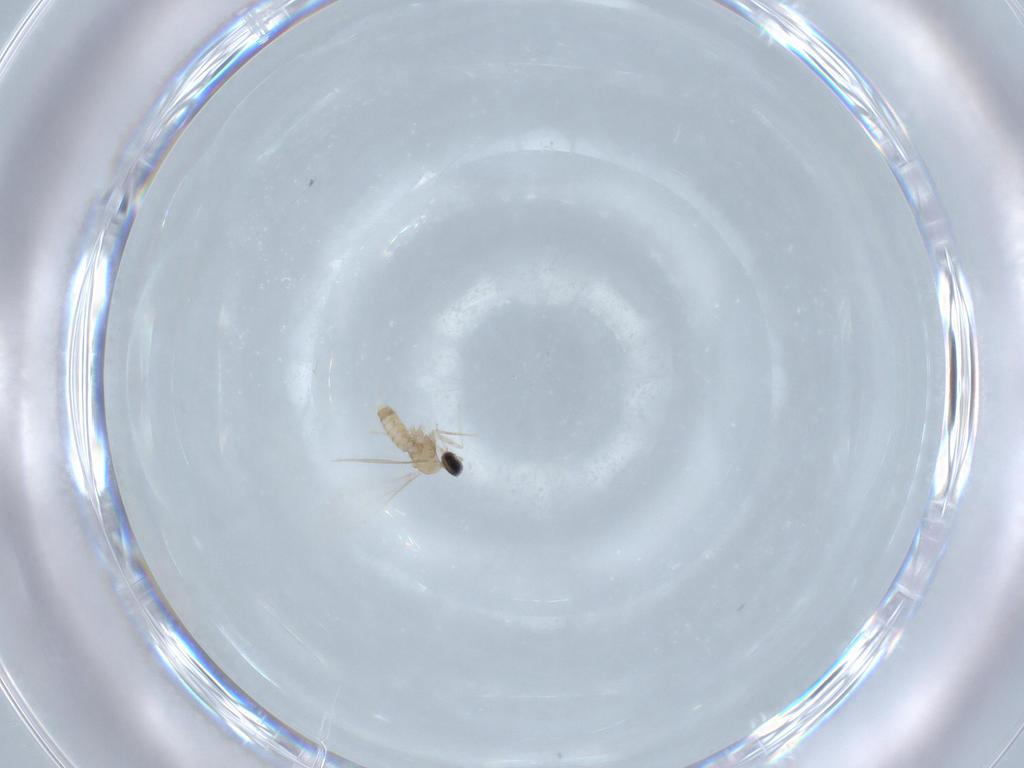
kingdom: Animalia
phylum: Arthropoda
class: Insecta
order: Diptera
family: Cecidomyiidae
